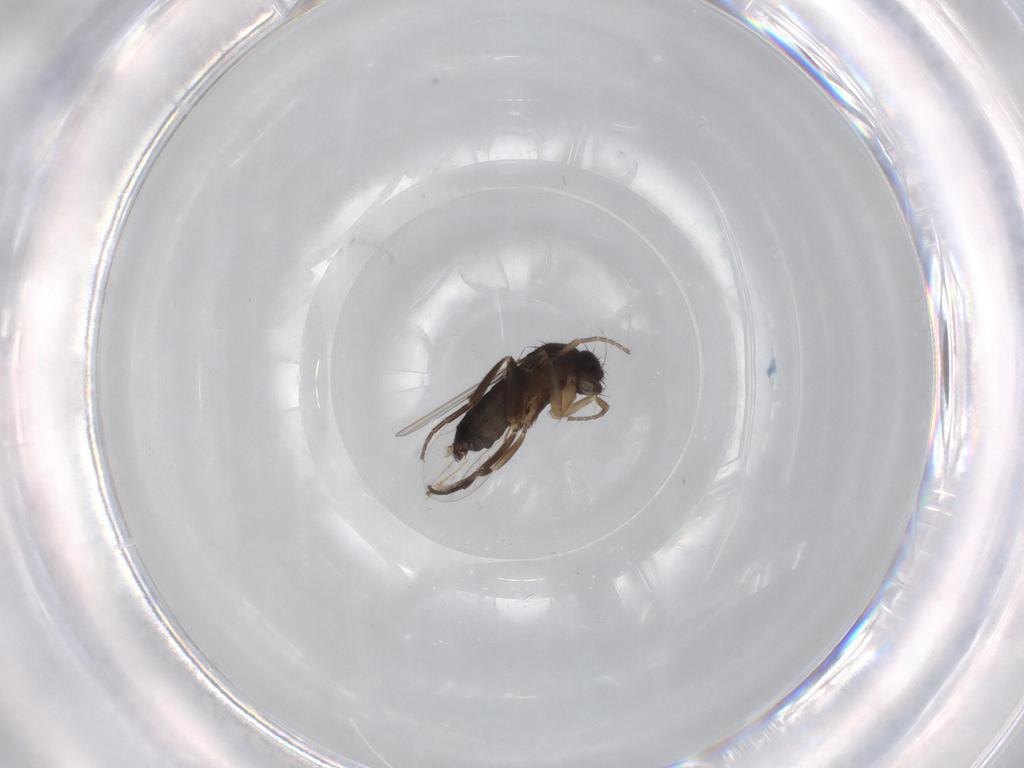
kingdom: Animalia
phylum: Arthropoda
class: Insecta
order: Diptera
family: Phoridae
